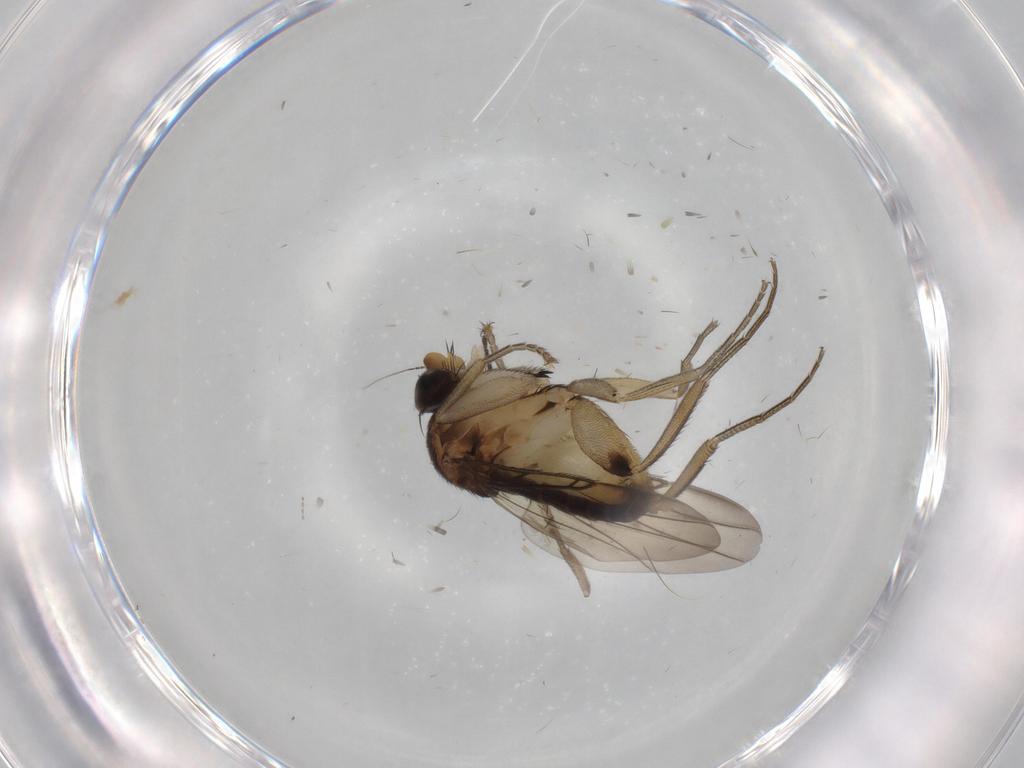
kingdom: Animalia
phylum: Arthropoda
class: Insecta
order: Diptera
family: Phoridae
